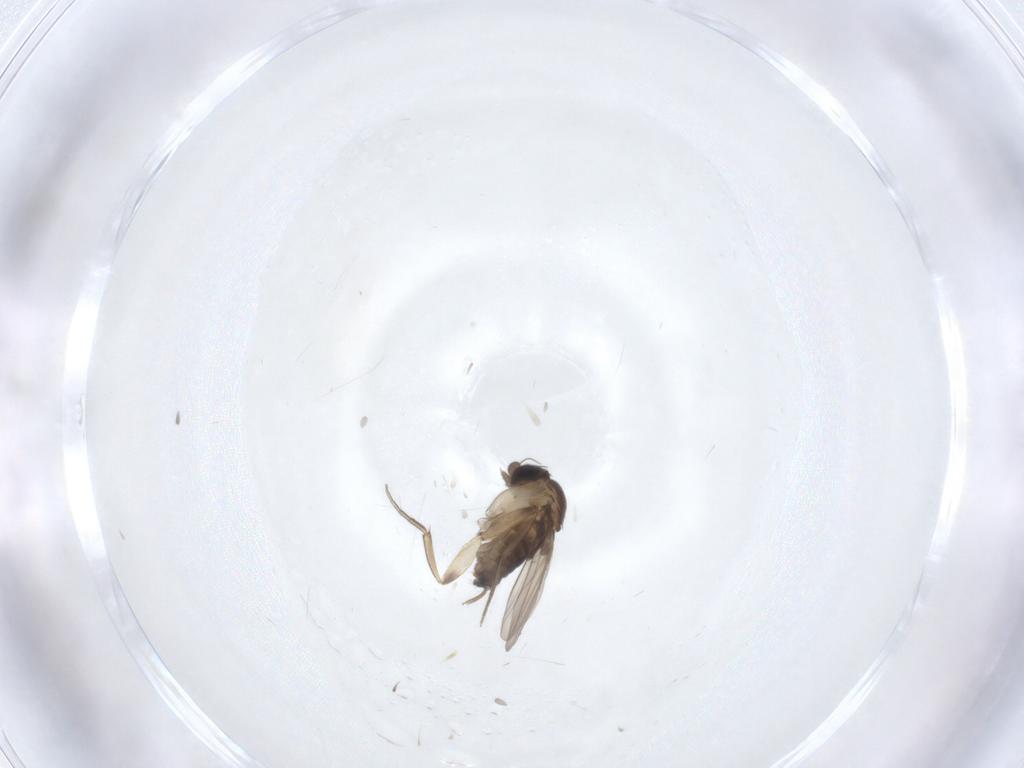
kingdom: Animalia
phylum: Arthropoda
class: Insecta
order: Diptera
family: Phoridae
